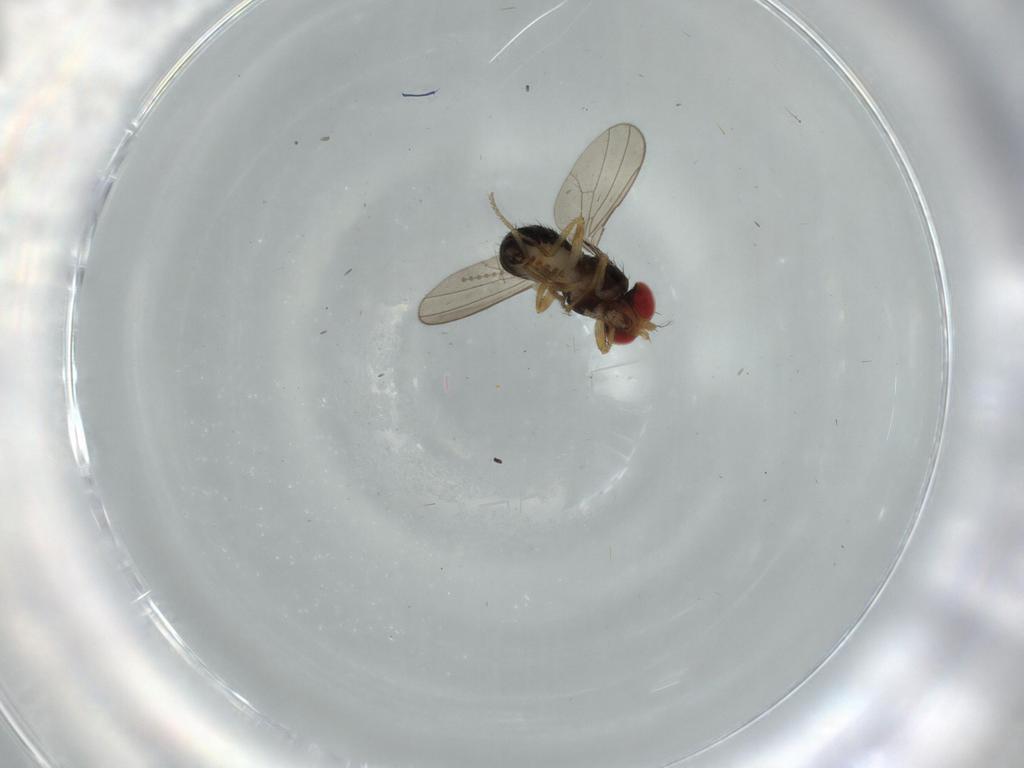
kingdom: Animalia
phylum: Arthropoda
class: Insecta
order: Diptera
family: Drosophilidae
